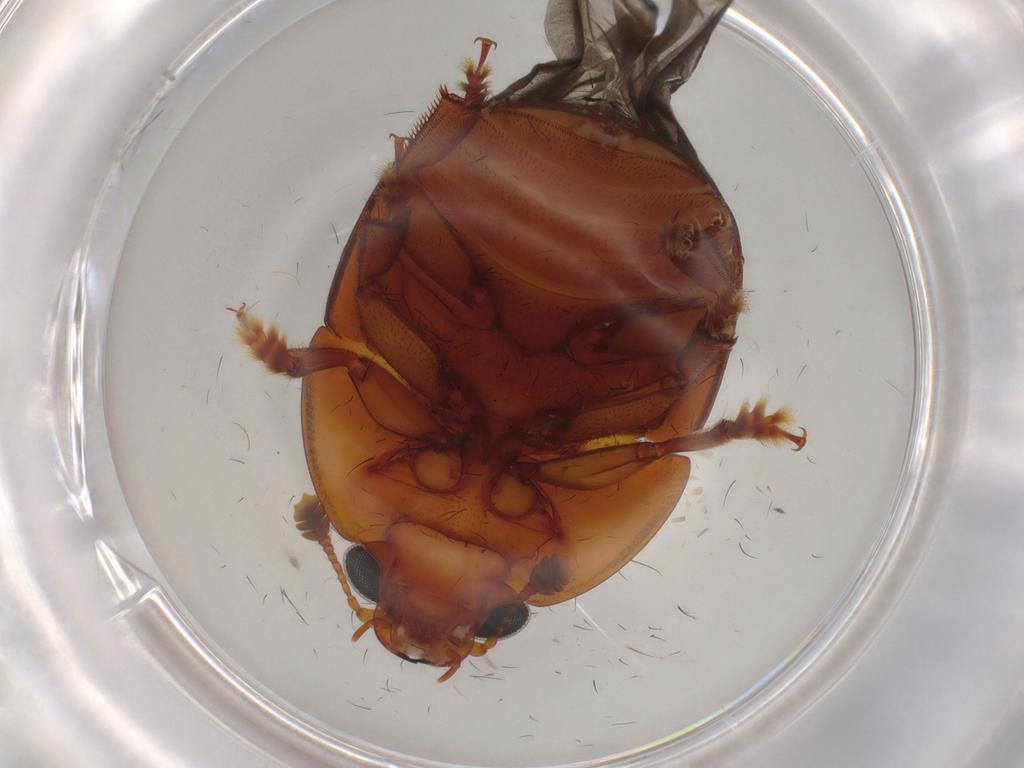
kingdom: Animalia
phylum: Arthropoda
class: Insecta
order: Coleoptera
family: Nitidulidae
